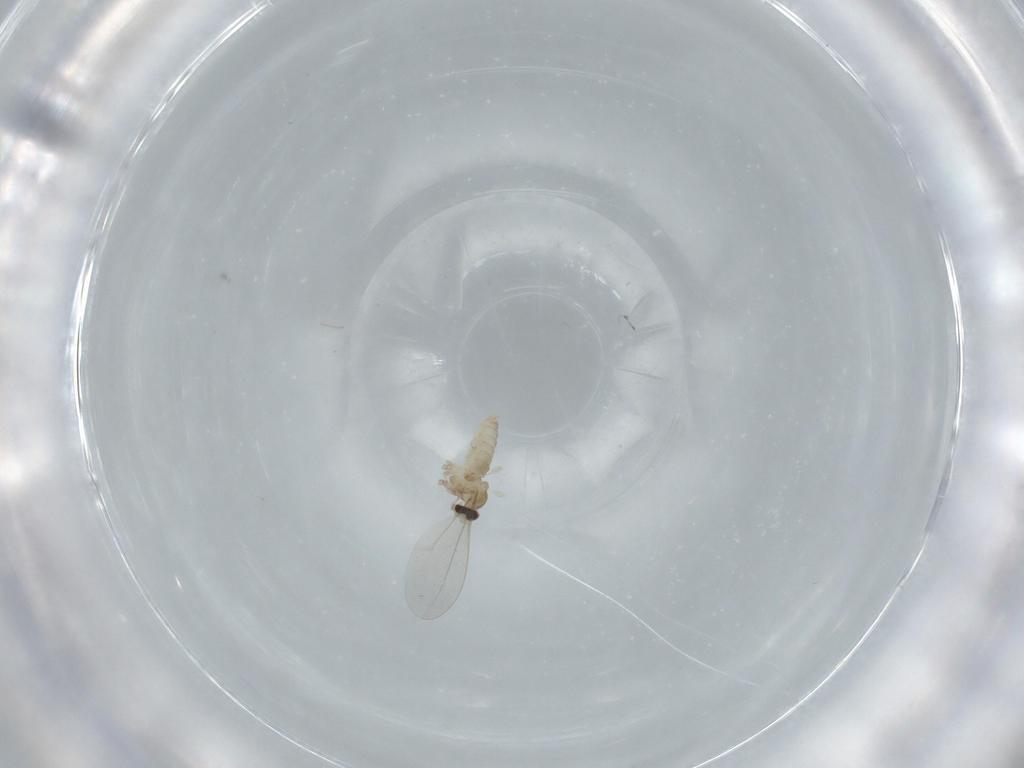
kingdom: Animalia
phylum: Arthropoda
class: Insecta
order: Diptera
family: Cecidomyiidae
